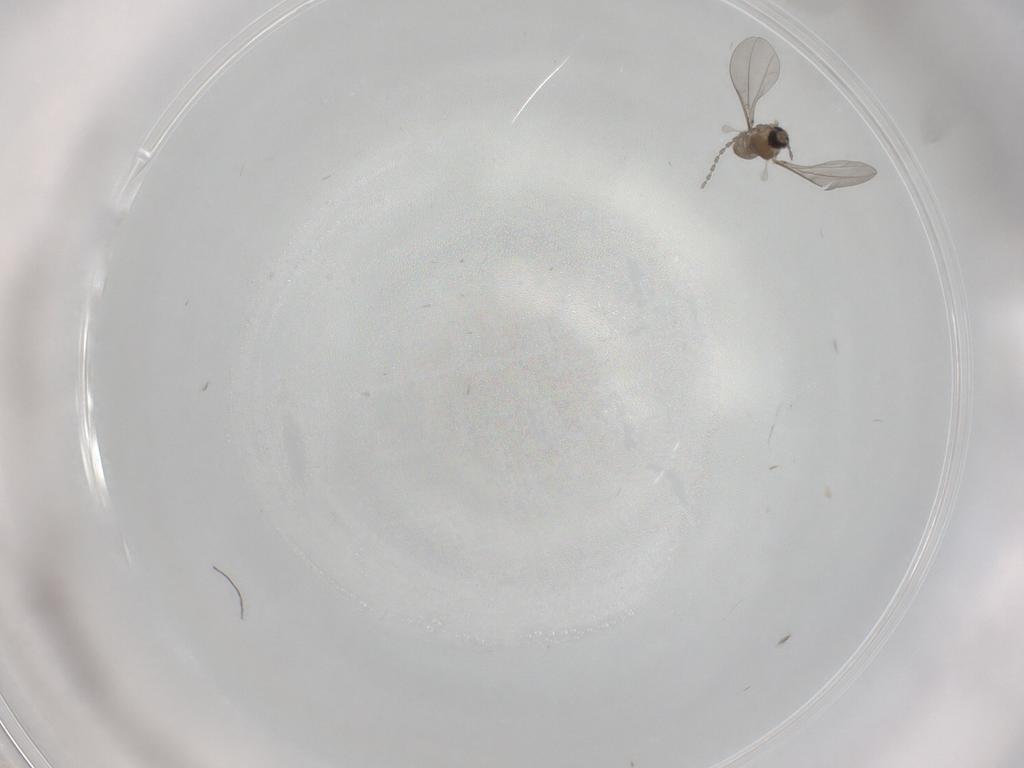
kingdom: Animalia
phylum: Arthropoda
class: Insecta
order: Diptera
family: Cecidomyiidae
